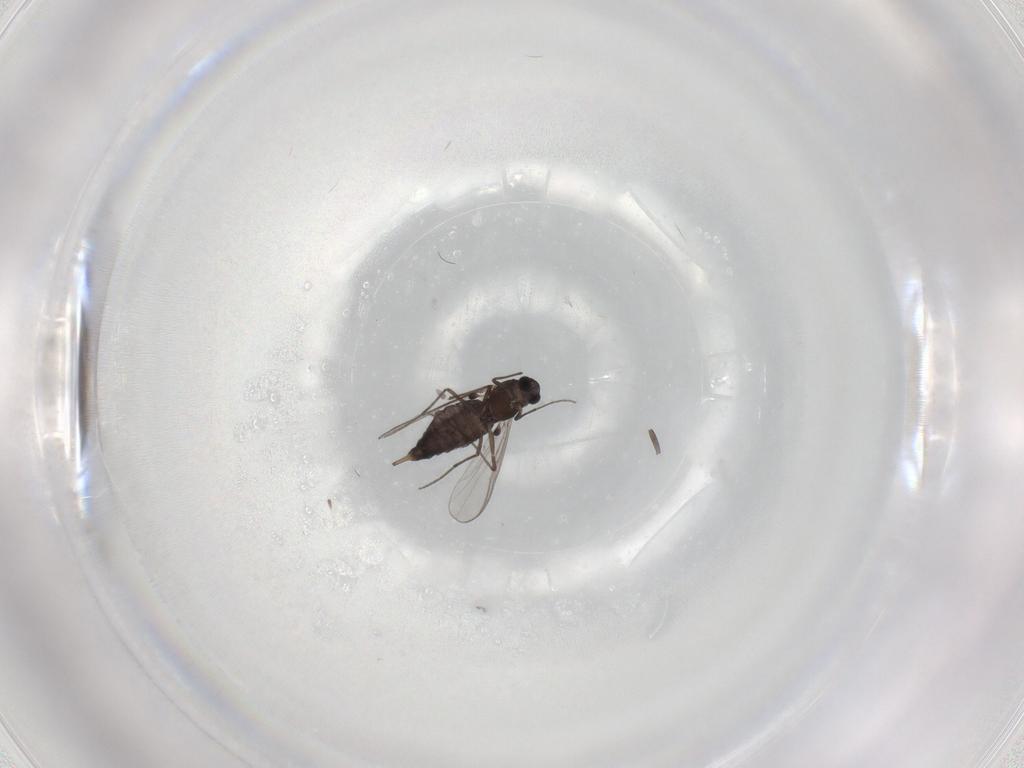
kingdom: Animalia
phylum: Arthropoda
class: Insecta
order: Diptera
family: Chironomidae
